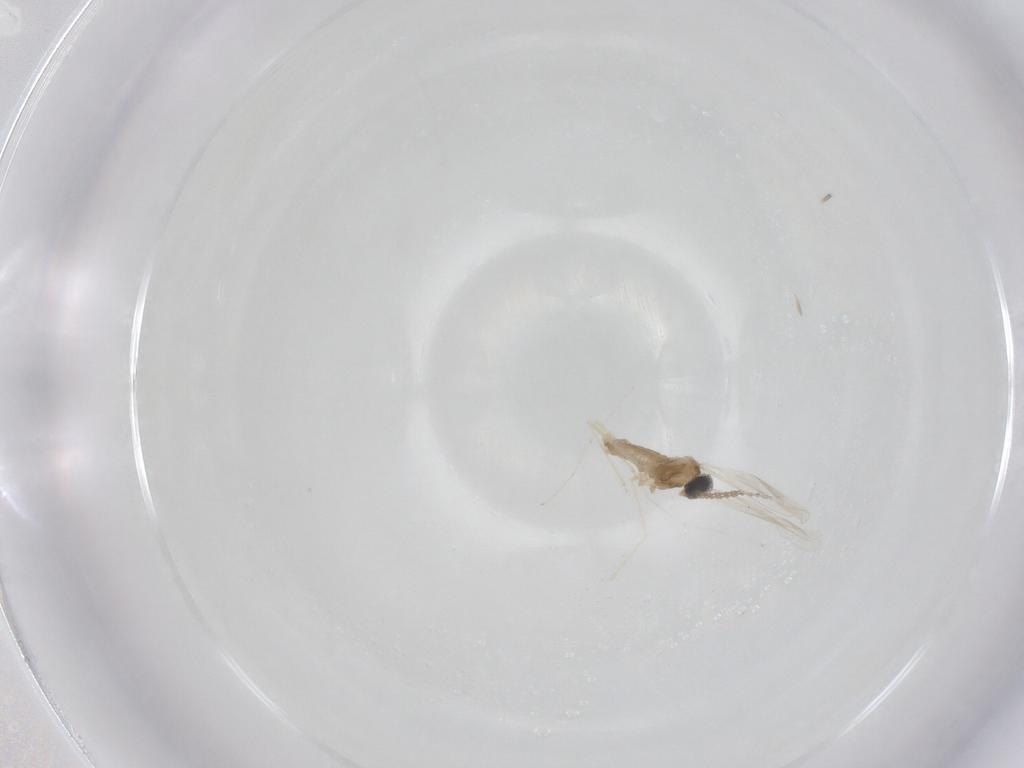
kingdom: Animalia
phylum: Arthropoda
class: Insecta
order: Diptera
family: Cecidomyiidae
